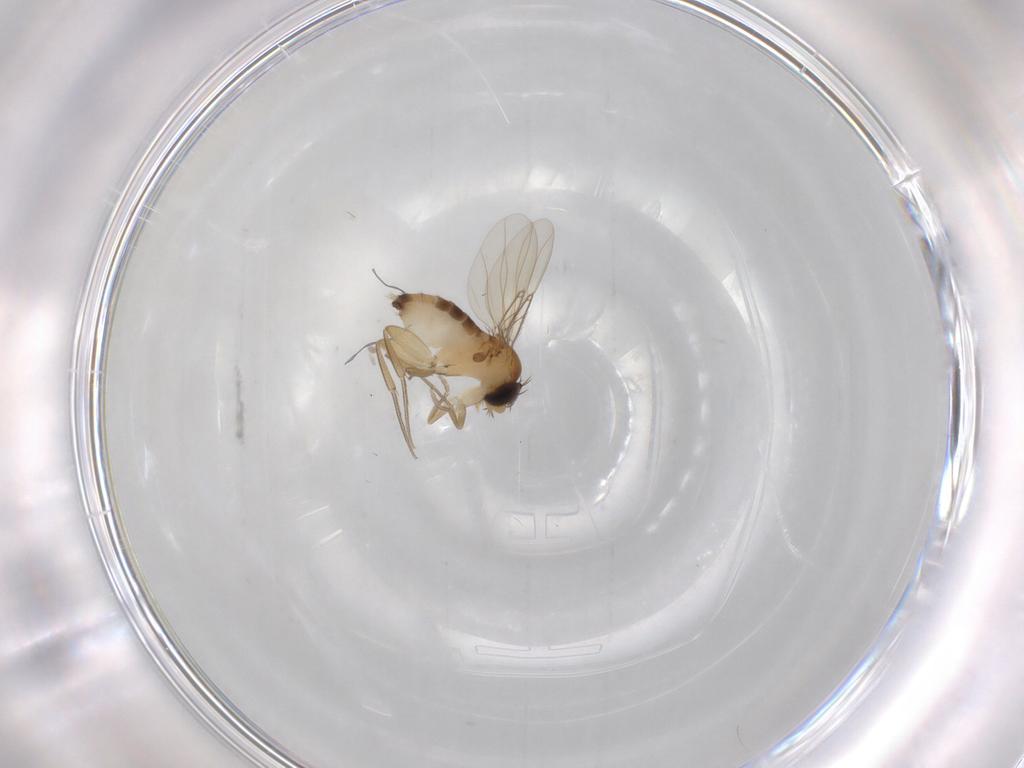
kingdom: Animalia
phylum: Arthropoda
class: Insecta
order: Diptera
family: Phoridae
